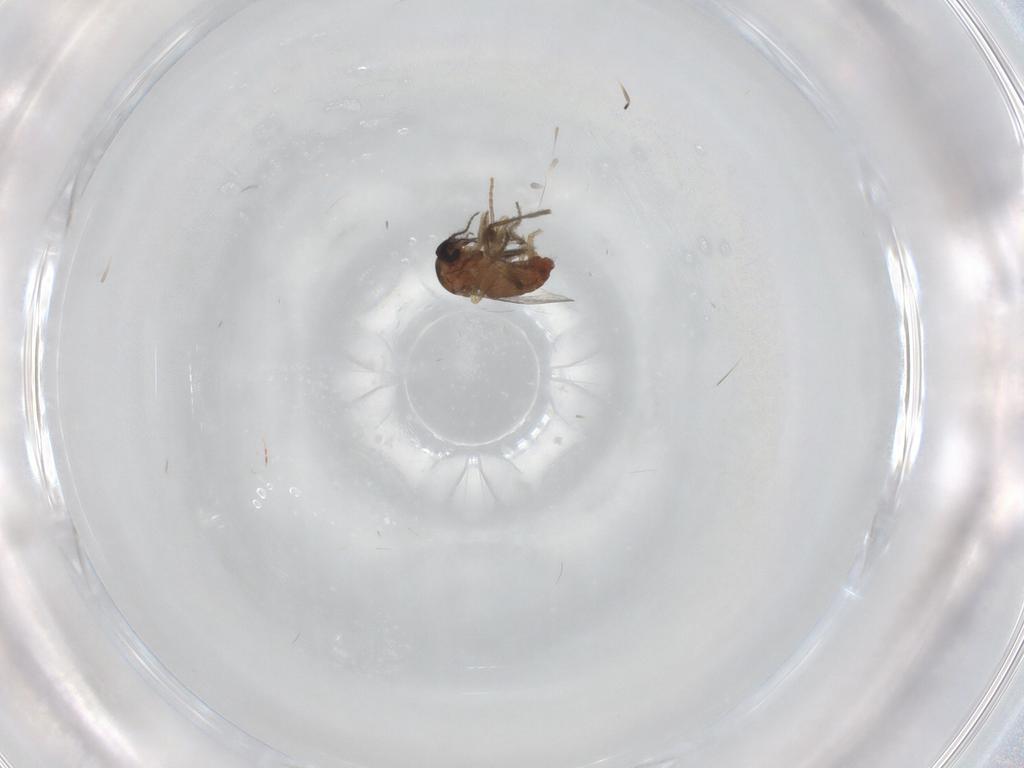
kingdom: Animalia
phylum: Arthropoda
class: Insecta
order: Diptera
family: Ceratopogonidae
